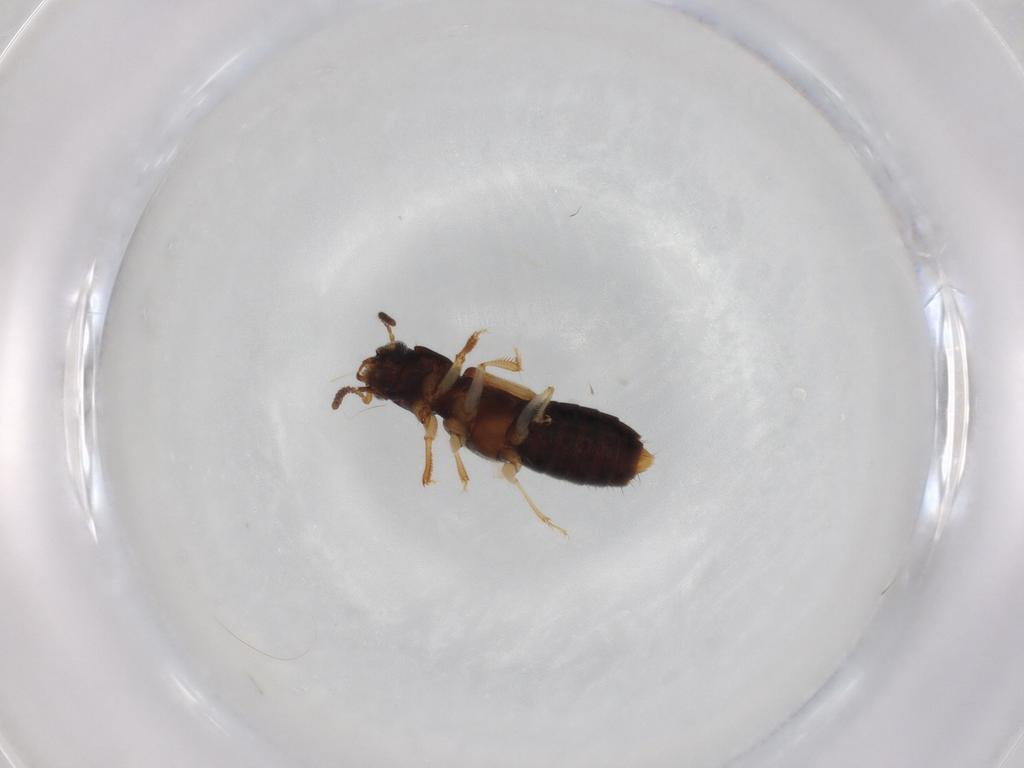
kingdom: Animalia
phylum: Arthropoda
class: Insecta
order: Coleoptera
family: Staphylinidae
